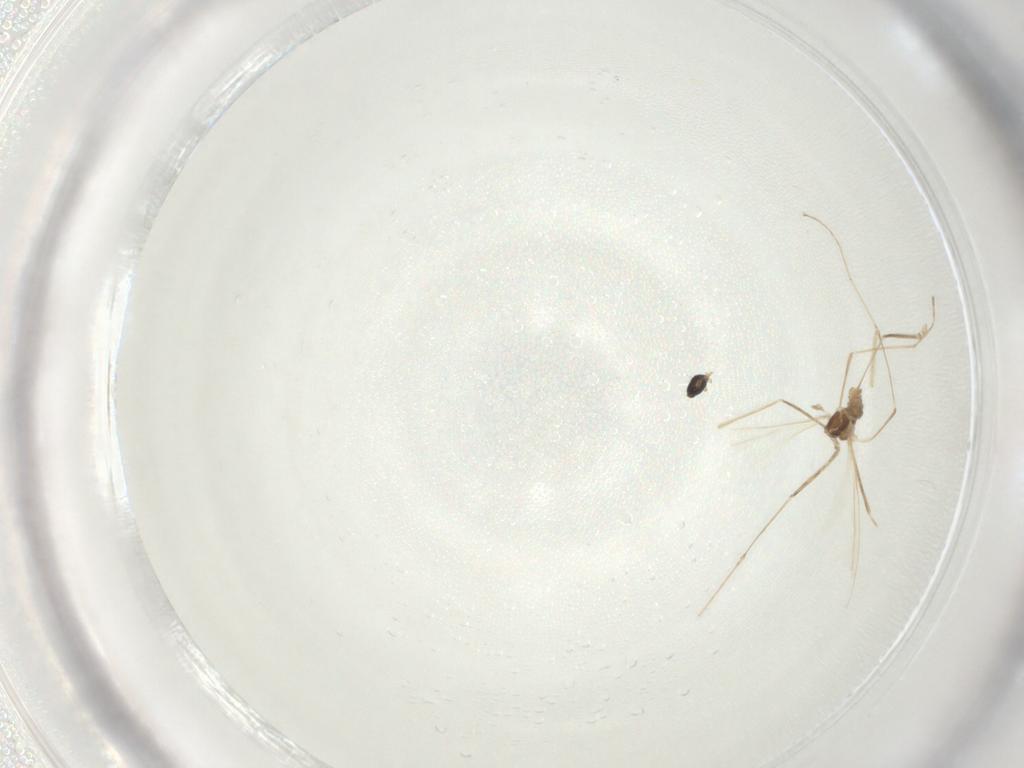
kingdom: Animalia
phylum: Arthropoda
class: Insecta
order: Diptera
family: Cecidomyiidae
